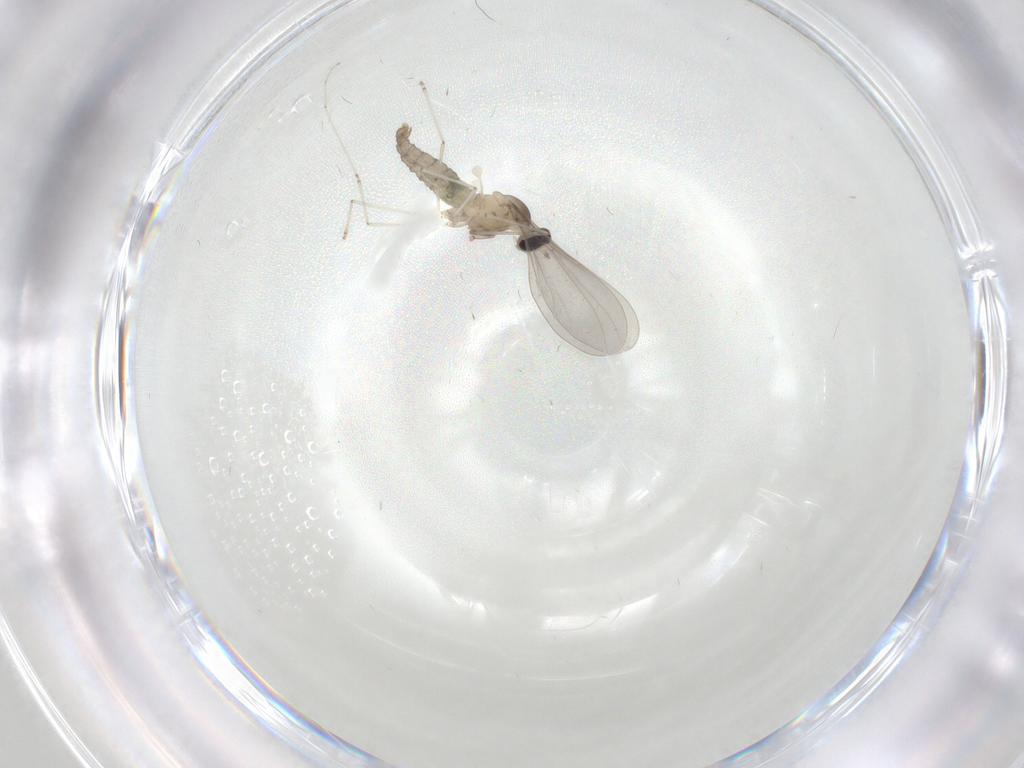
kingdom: Animalia
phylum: Arthropoda
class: Insecta
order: Diptera
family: Cecidomyiidae
